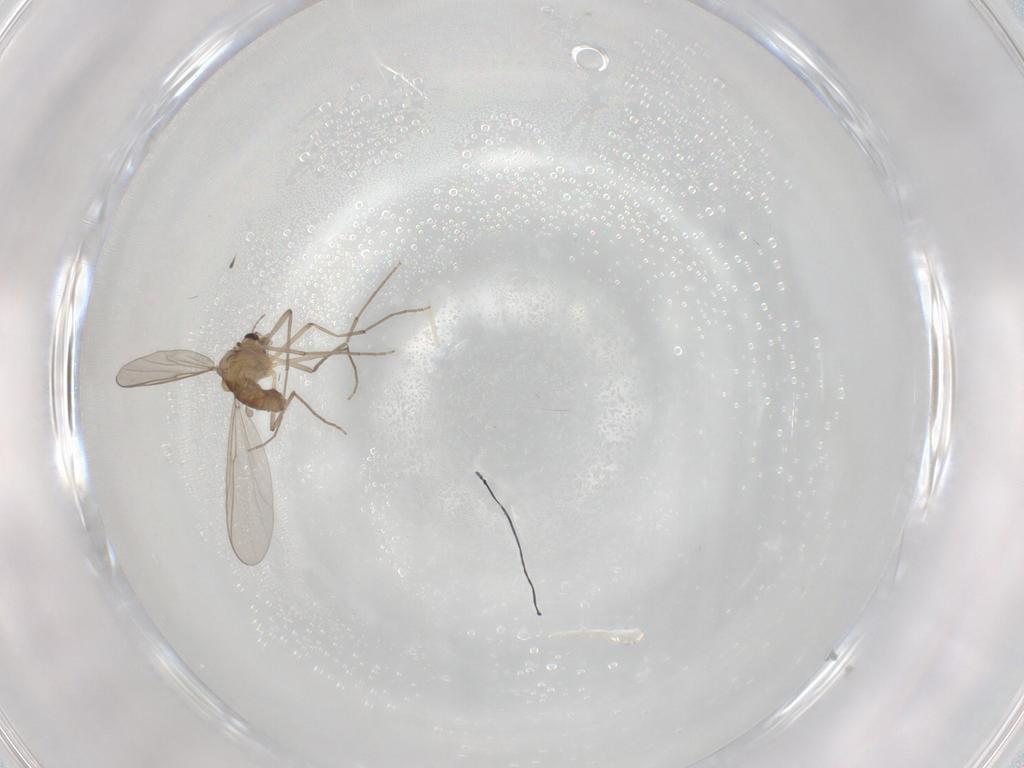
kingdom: Animalia
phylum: Arthropoda
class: Insecta
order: Diptera
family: Chironomidae
